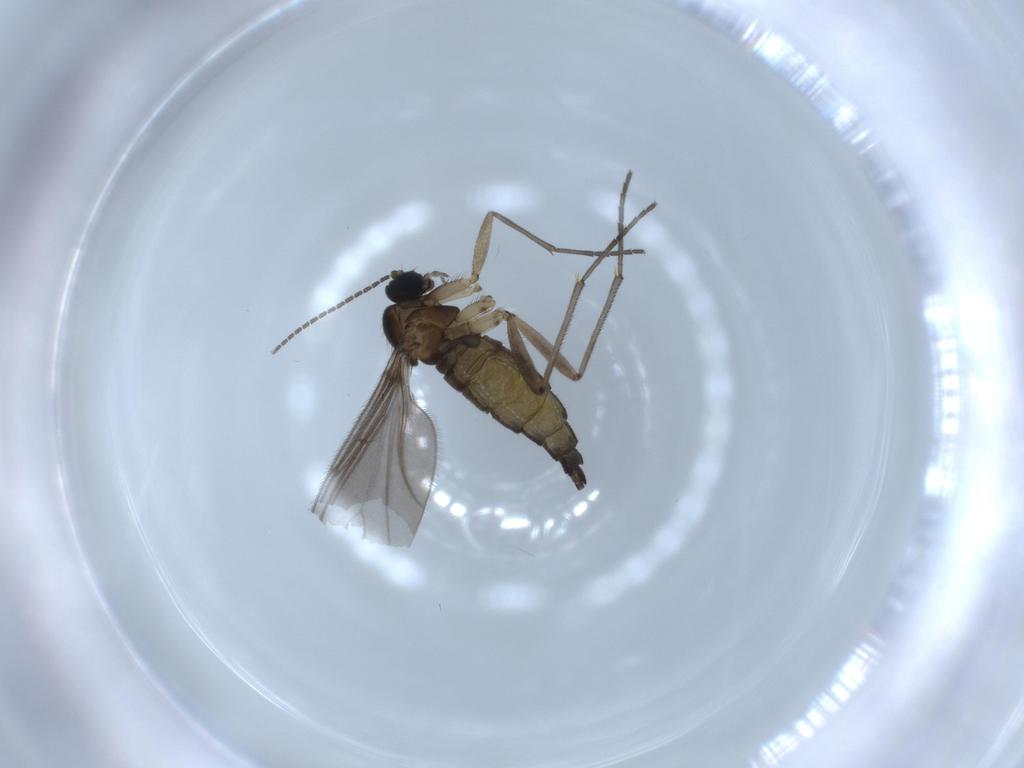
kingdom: Animalia
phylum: Arthropoda
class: Insecta
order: Diptera
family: Sciaridae
